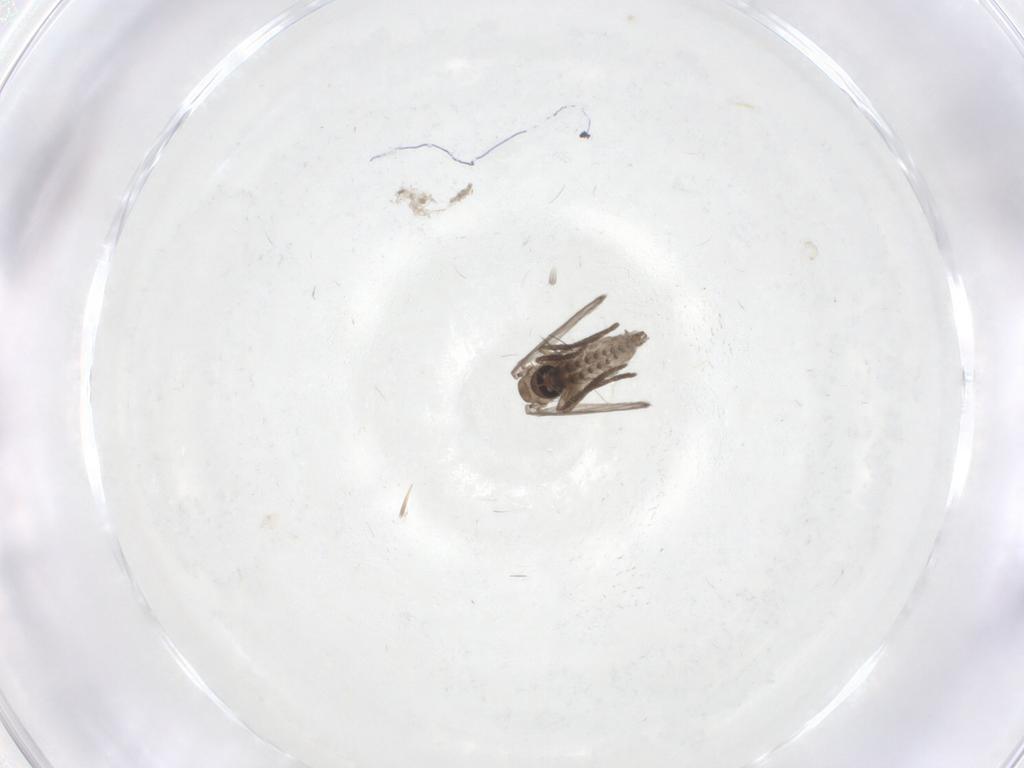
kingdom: Animalia
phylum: Arthropoda
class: Insecta
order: Diptera
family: Psychodidae
